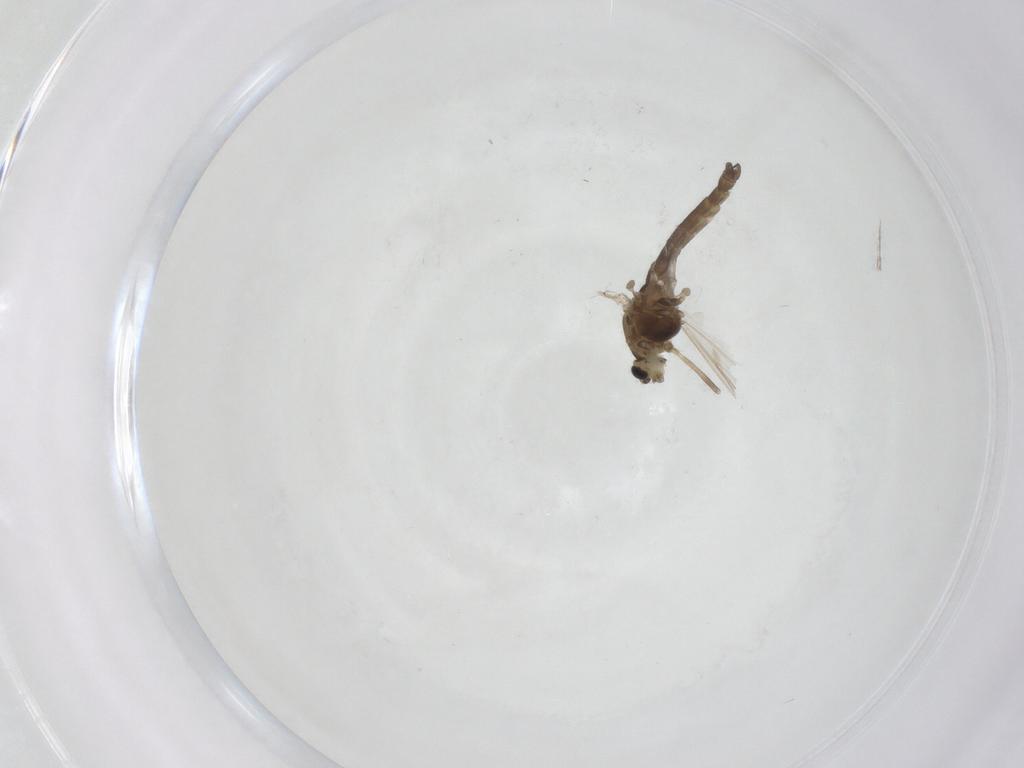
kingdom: Animalia
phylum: Arthropoda
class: Insecta
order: Diptera
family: Chironomidae
